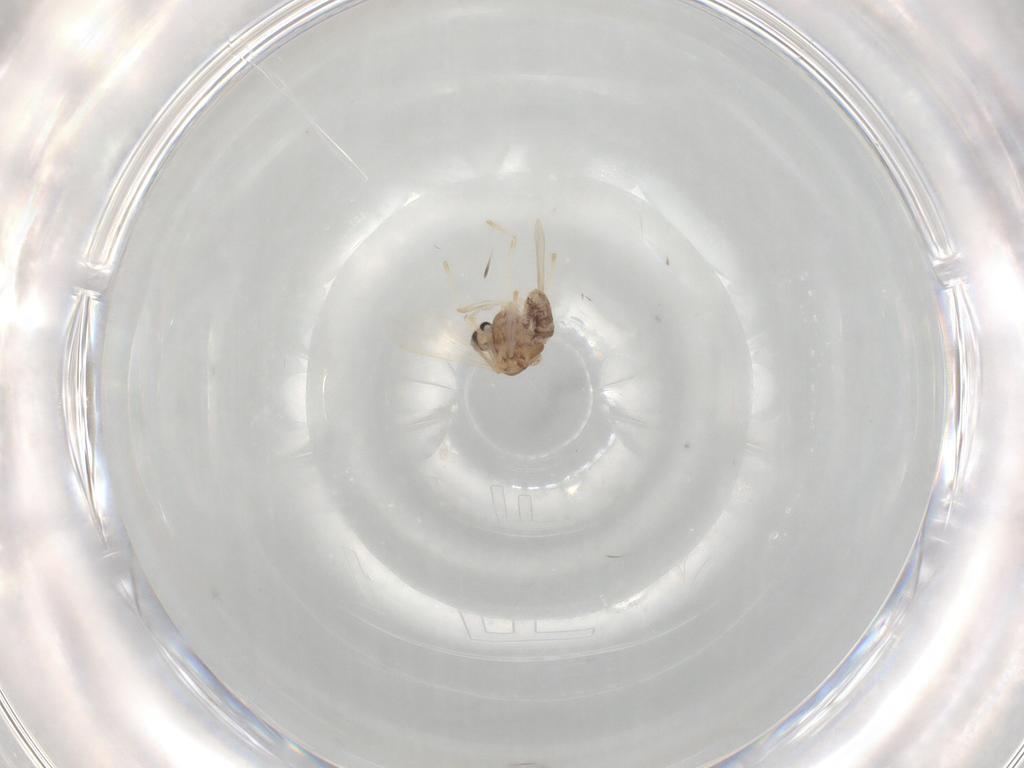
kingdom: Animalia
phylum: Arthropoda
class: Insecta
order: Diptera
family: Chironomidae
